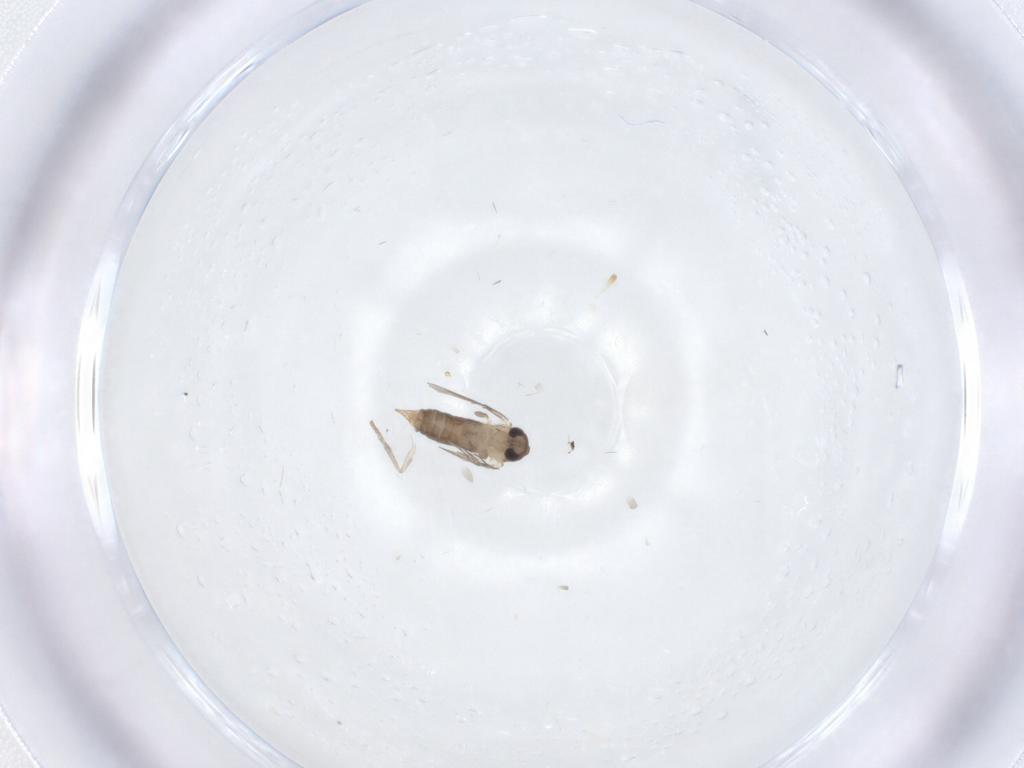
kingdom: Animalia
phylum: Arthropoda
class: Insecta
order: Diptera
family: Psychodidae
